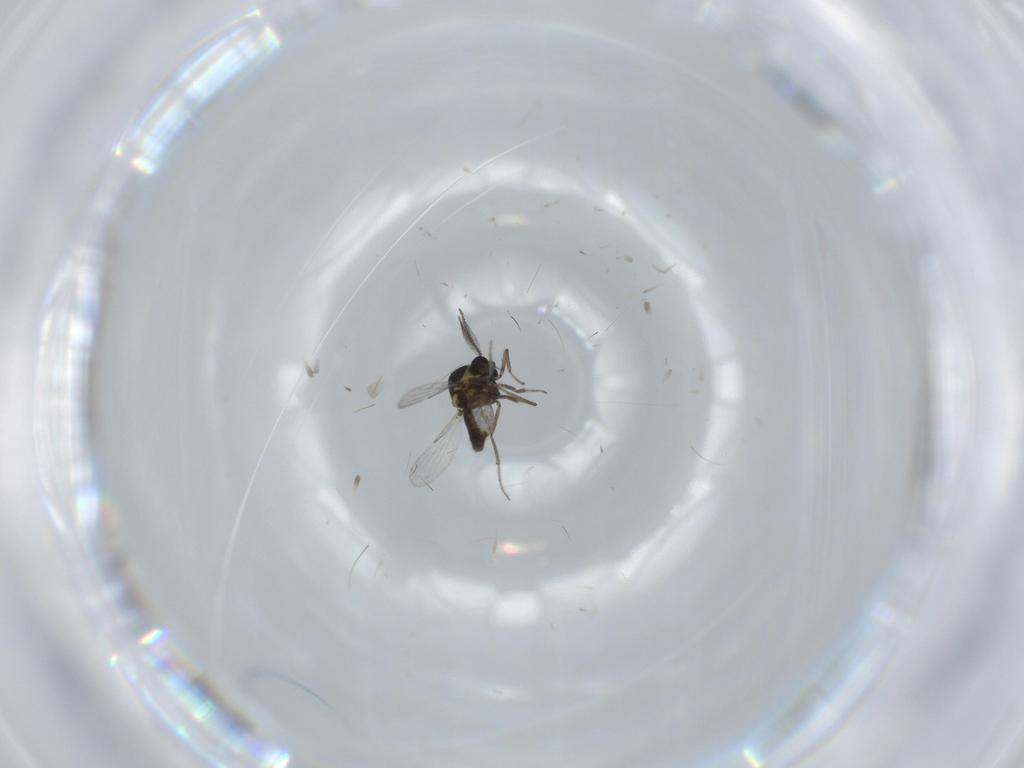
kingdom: Animalia
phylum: Arthropoda
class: Insecta
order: Diptera
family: Ceratopogonidae
